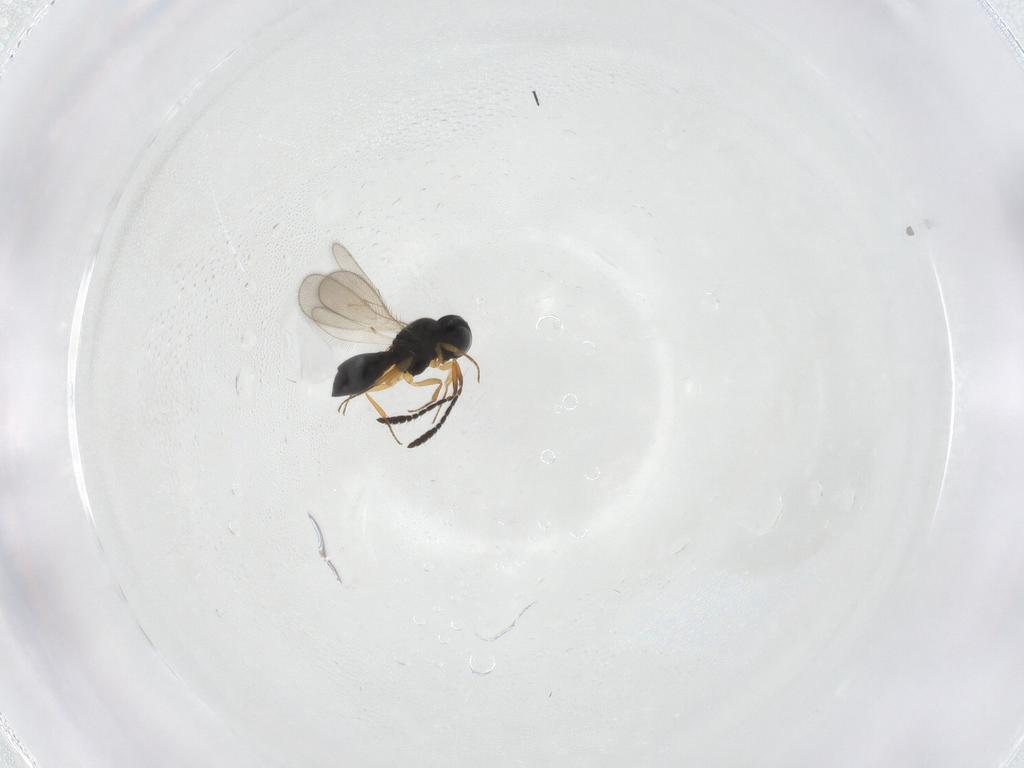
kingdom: Animalia
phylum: Arthropoda
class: Insecta
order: Hymenoptera
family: Scelionidae
